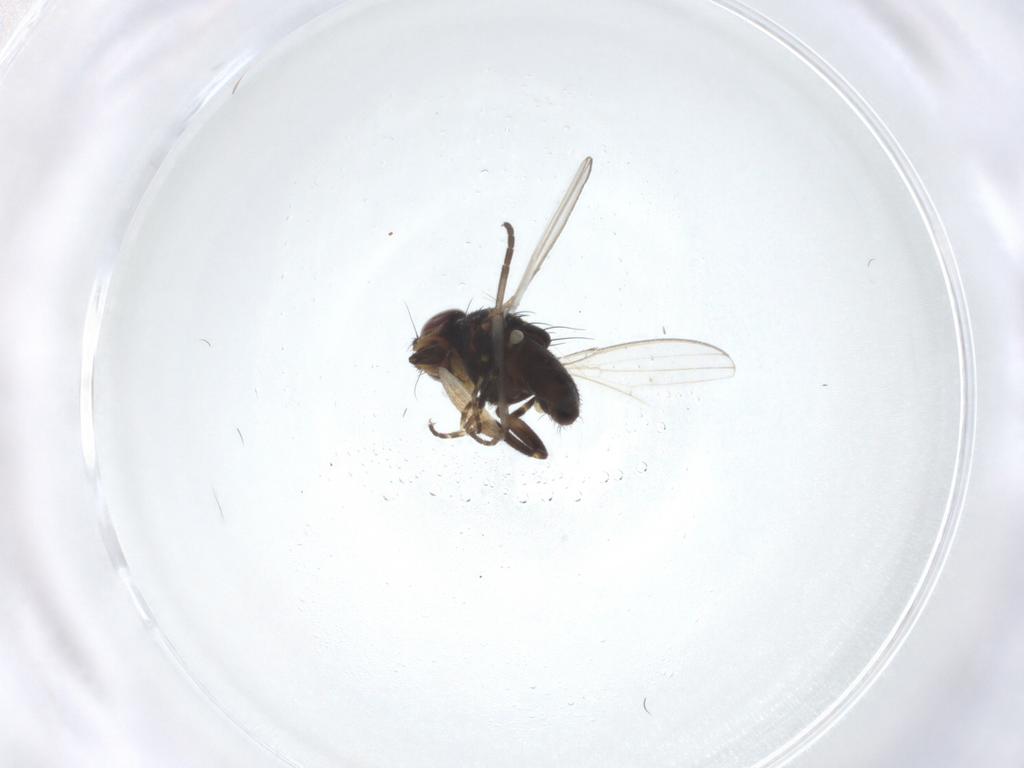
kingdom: Animalia
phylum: Arthropoda
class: Insecta
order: Diptera
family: Milichiidae
